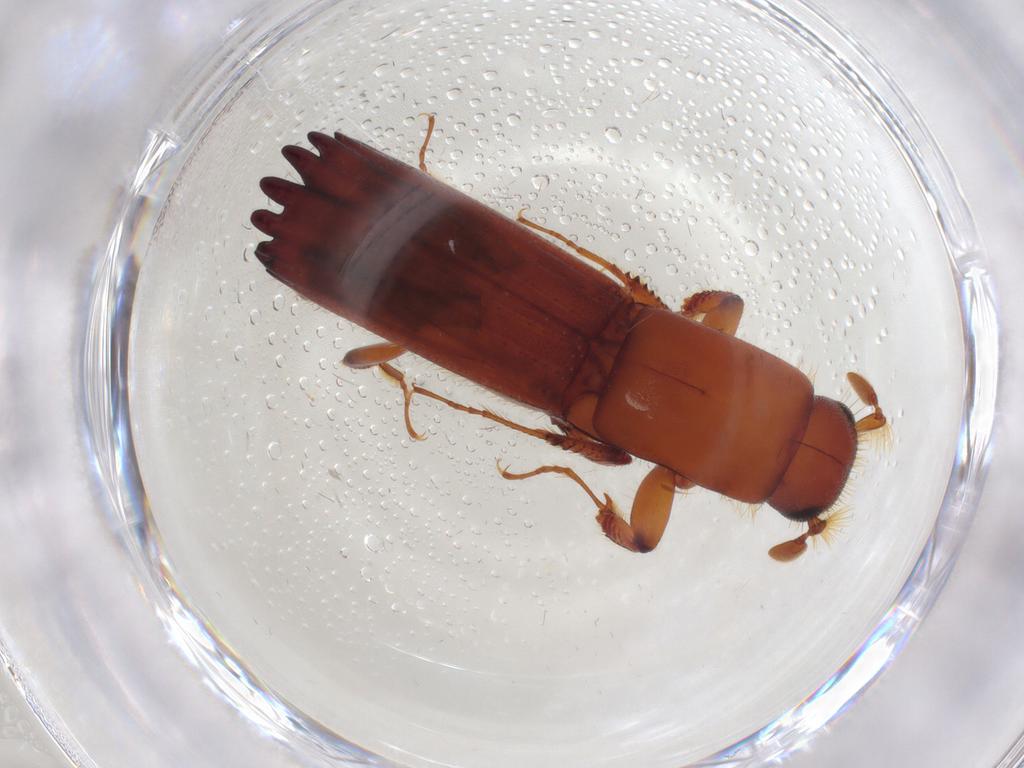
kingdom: Animalia
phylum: Arthropoda
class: Insecta
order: Coleoptera
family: Curculionidae
